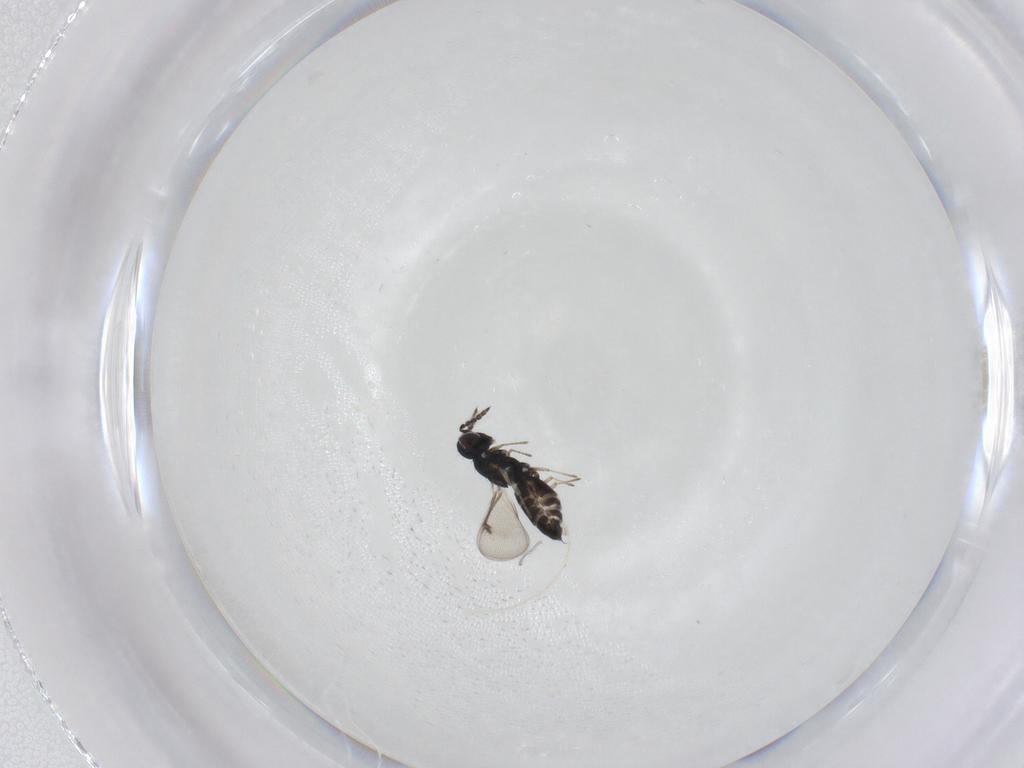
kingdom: Animalia
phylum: Arthropoda
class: Insecta
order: Hymenoptera
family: Eulophidae
